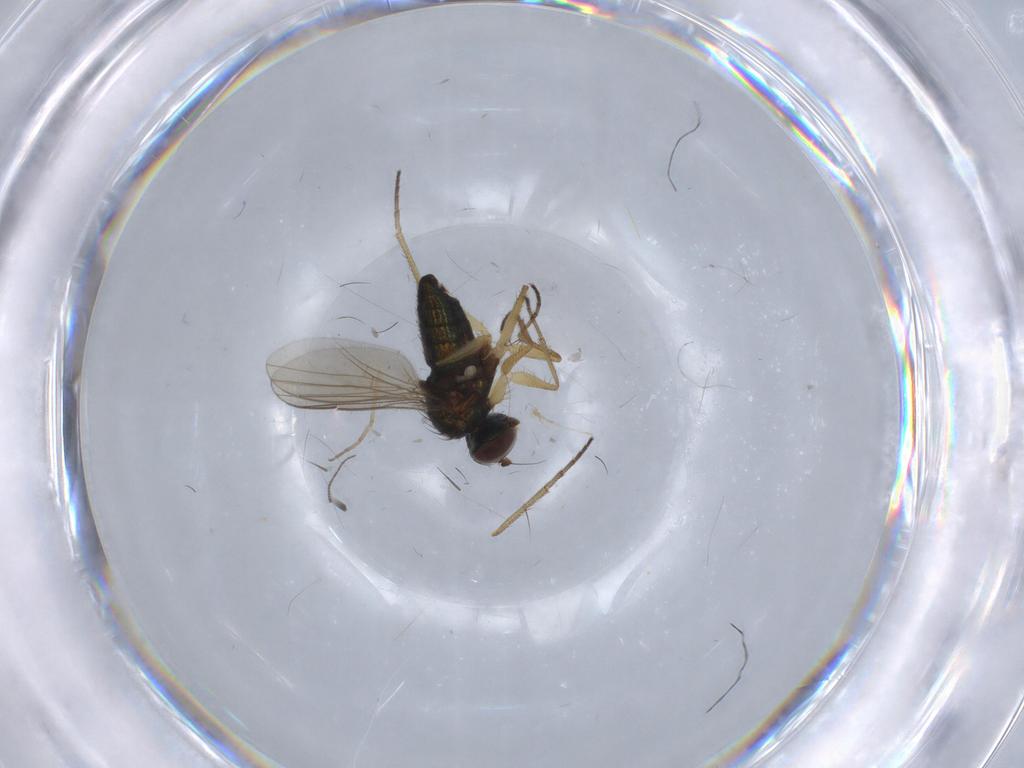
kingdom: Animalia
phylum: Arthropoda
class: Insecta
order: Diptera
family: Chironomidae
